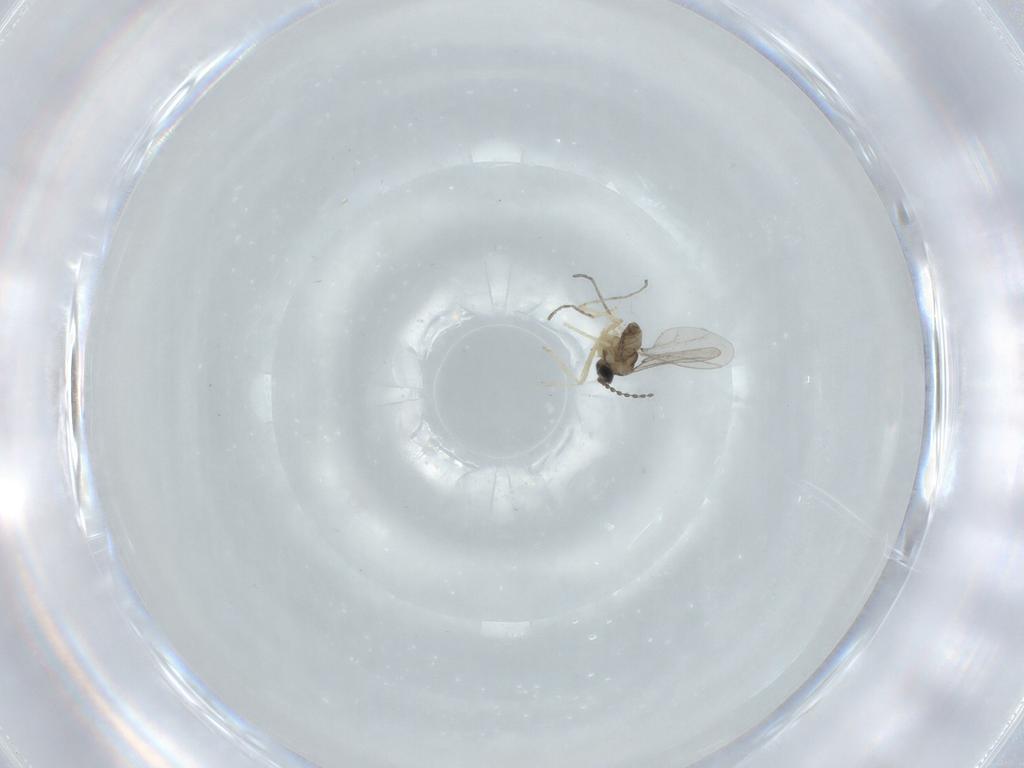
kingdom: Animalia
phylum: Arthropoda
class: Insecta
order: Diptera
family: Cecidomyiidae
